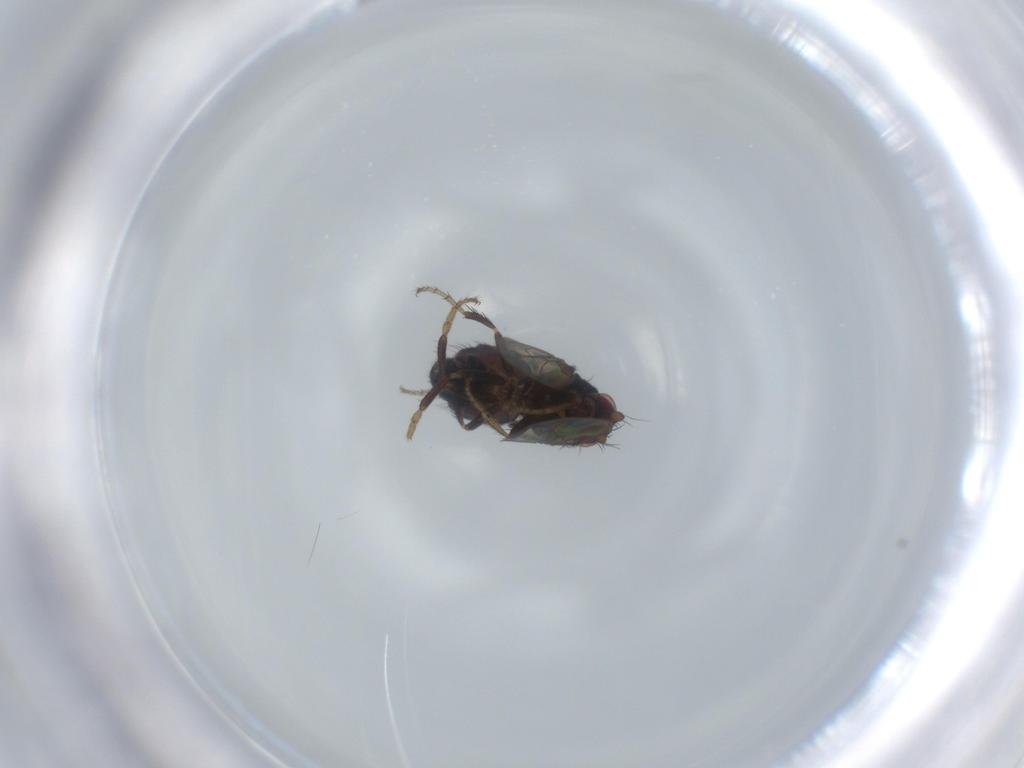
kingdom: Animalia
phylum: Arthropoda
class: Insecta
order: Diptera
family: Sphaeroceridae
